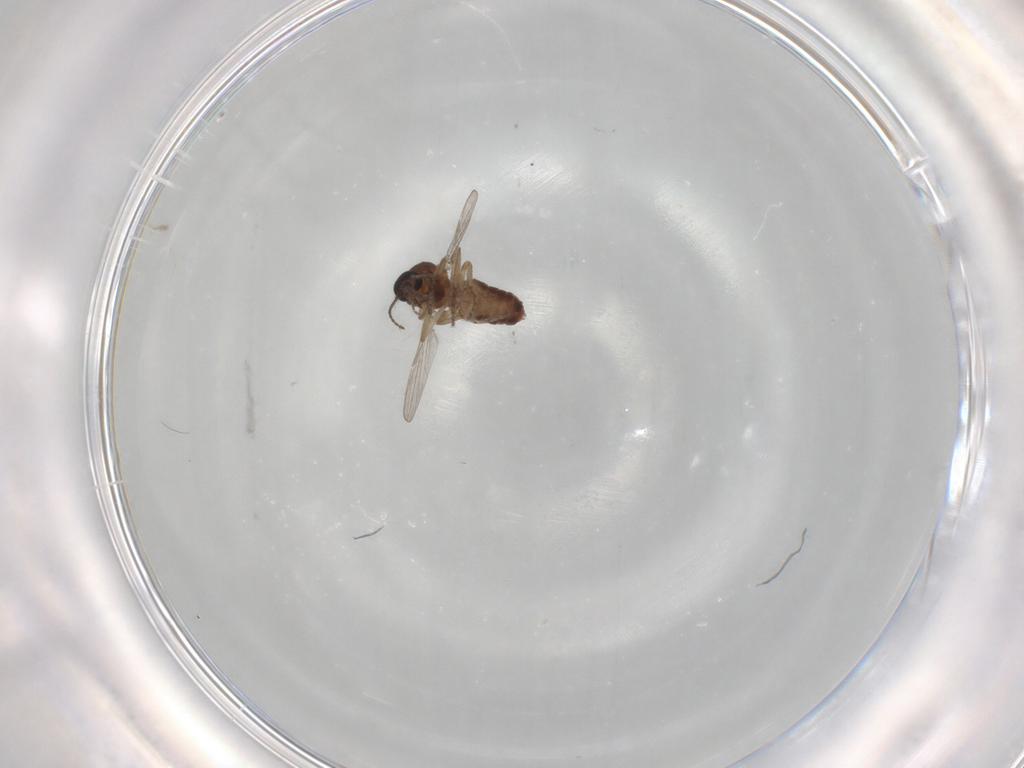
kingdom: Animalia
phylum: Arthropoda
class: Insecta
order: Diptera
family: Ceratopogonidae
